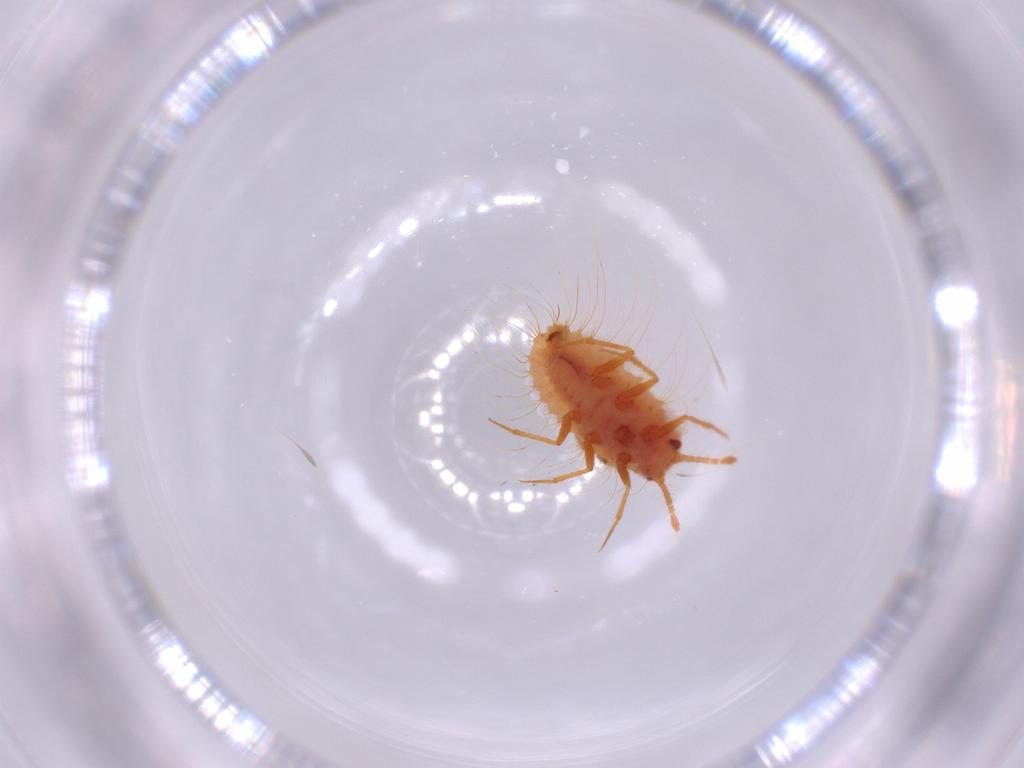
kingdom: Animalia
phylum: Arthropoda
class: Insecta
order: Hemiptera
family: Coccoidea_incertae_sedis
